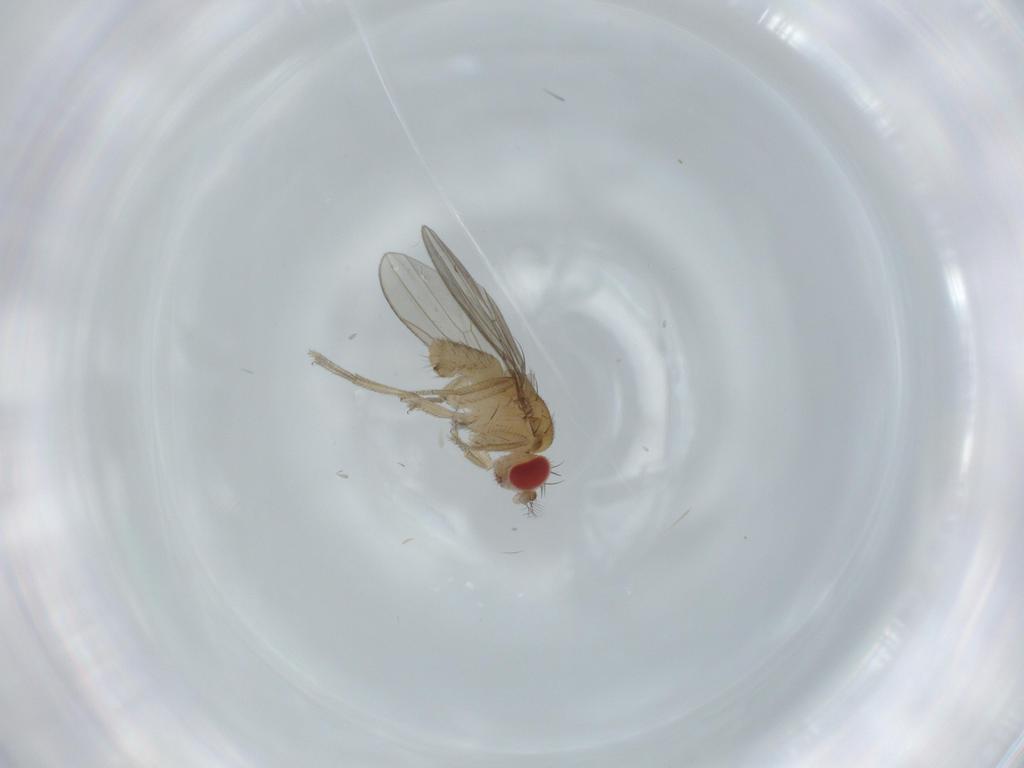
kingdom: Animalia
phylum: Arthropoda
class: Insecta
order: Diptera
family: Drosophilidae
